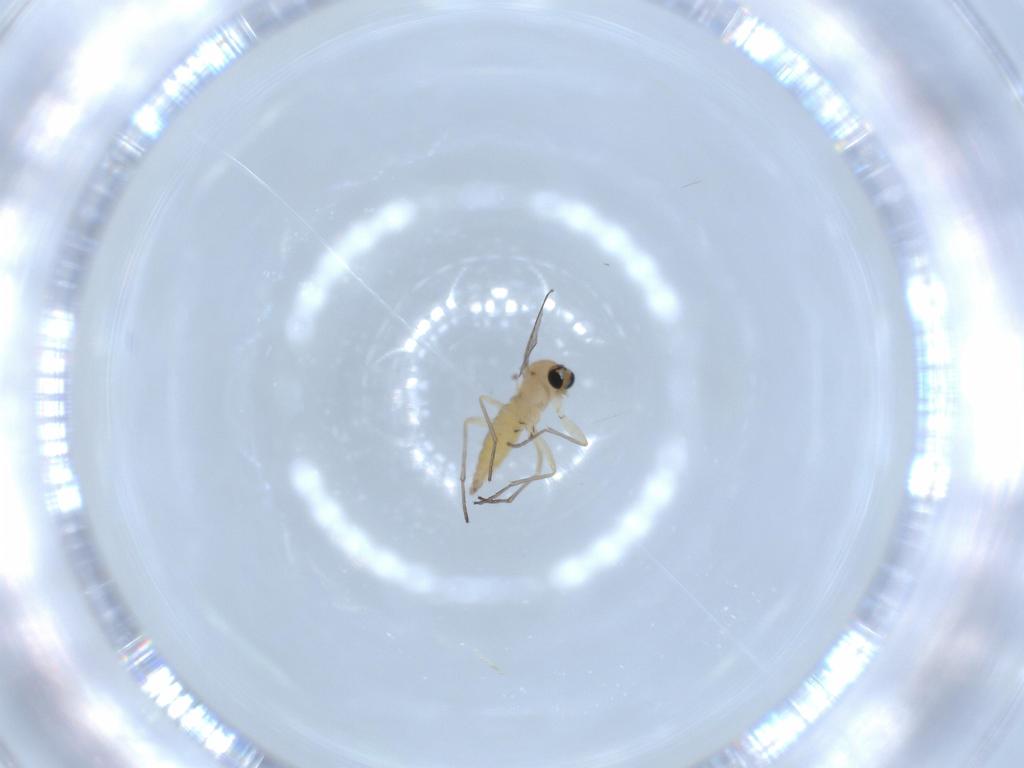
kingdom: Animalia
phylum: Arthropoda
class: Insecta
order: Diptera
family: Sciaridae
